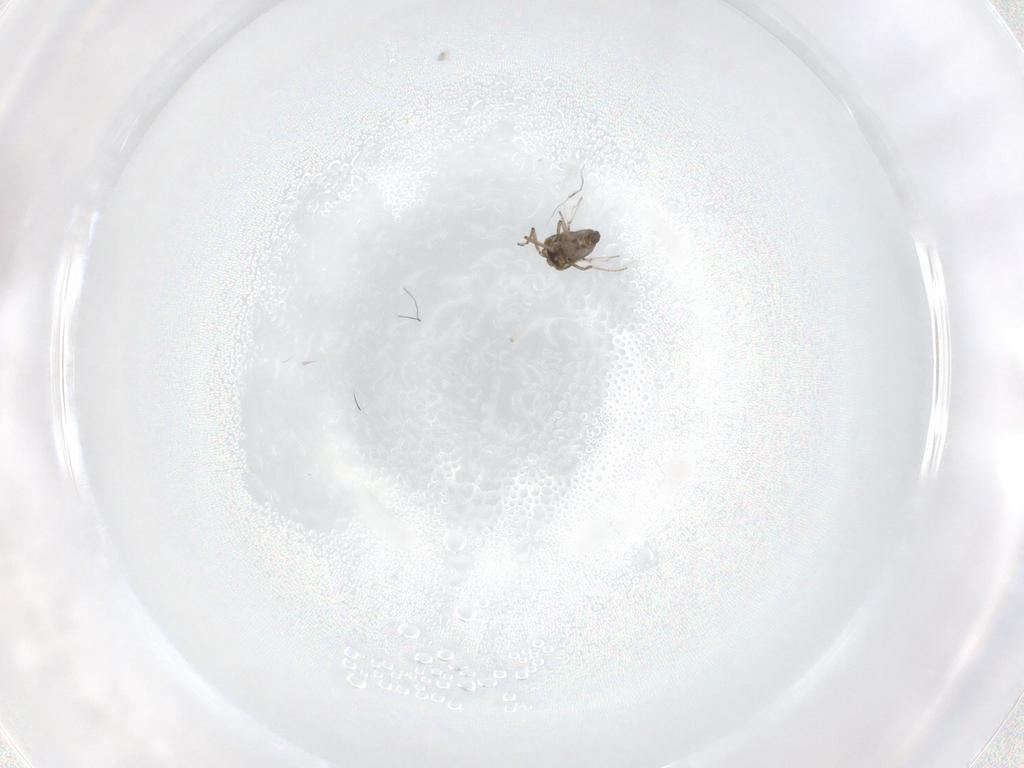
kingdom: Animalia
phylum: Arthropoda
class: Insecta
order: Diptera
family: Ceratopogonidae
